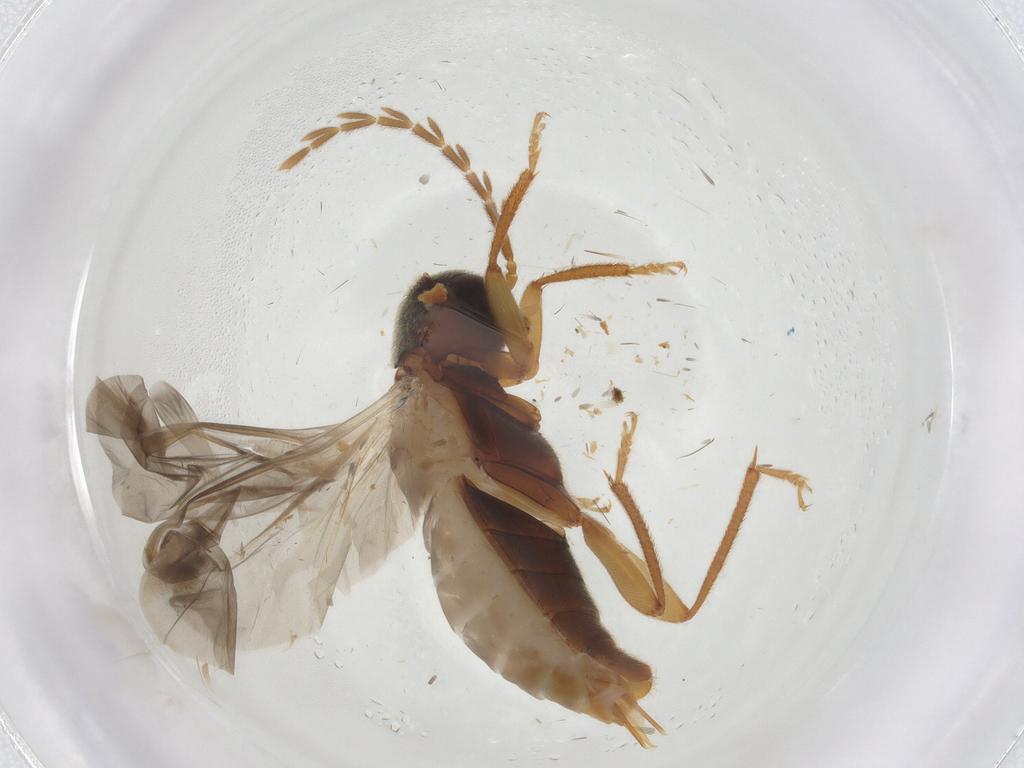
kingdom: Animalia
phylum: Arthropoda
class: Insecta
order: Coleoptera
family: Ptilodactylidae
